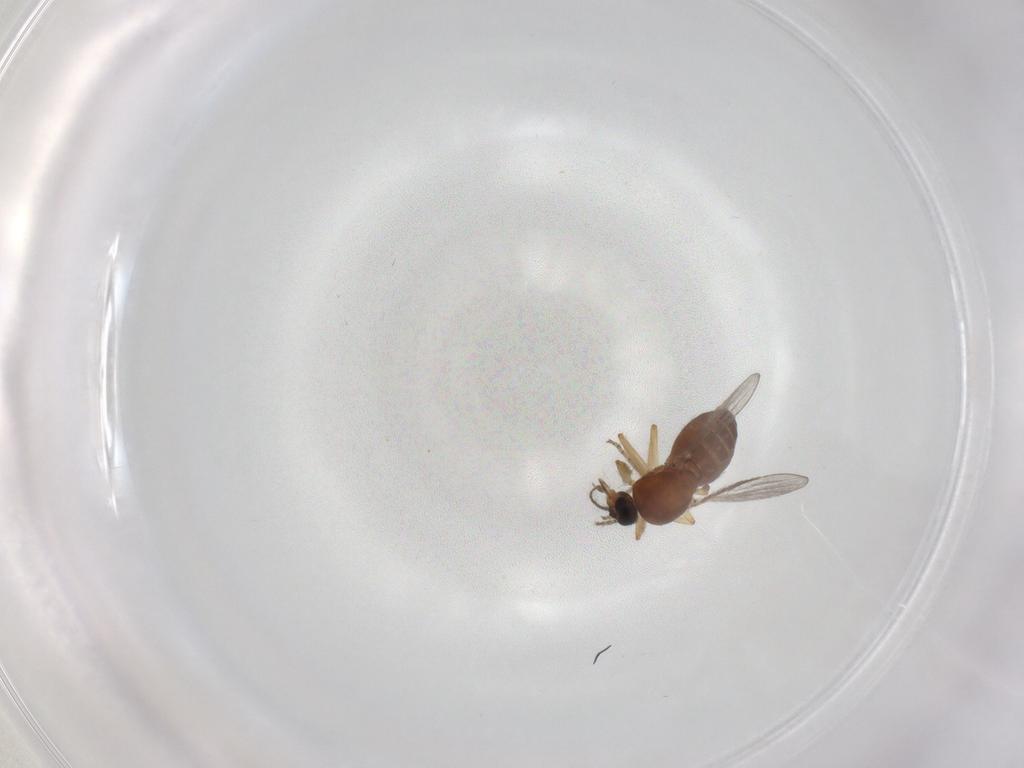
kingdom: Animalia
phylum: Arthropoda
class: Insecta
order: Diptera
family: Ceratopogonidae
